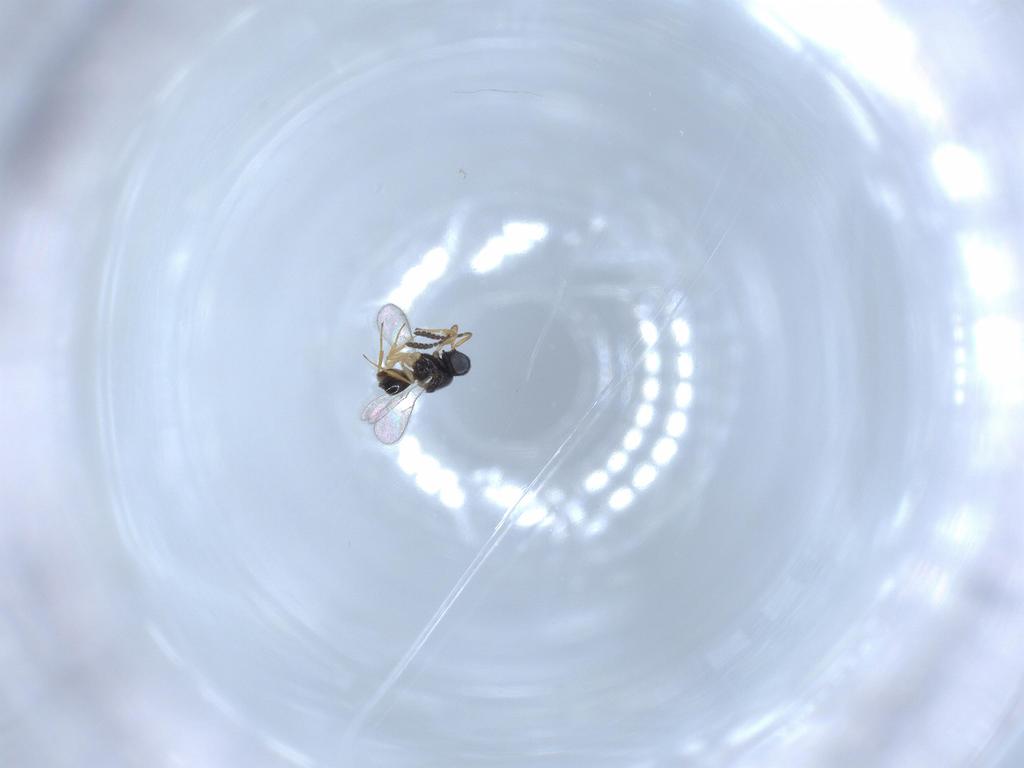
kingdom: Animalia
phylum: Arthropoda
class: Insecta
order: Hymenoptera
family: Scelionidae
